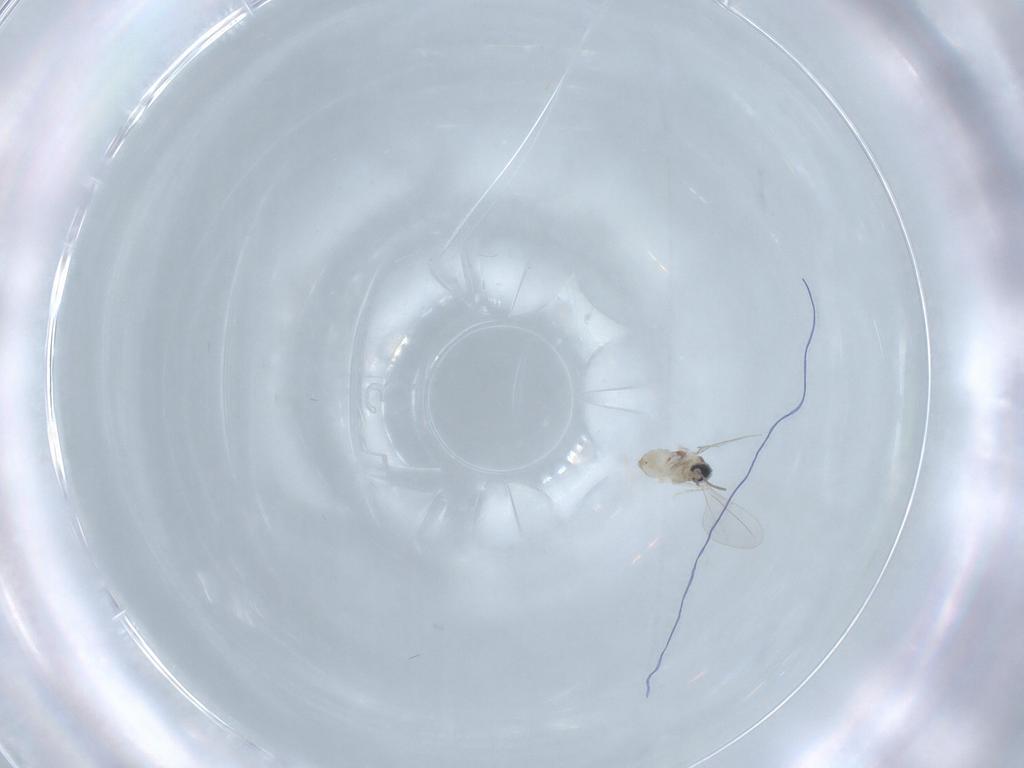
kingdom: Animalia
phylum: Arthropoda
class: Insecta
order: Diptera
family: Cecidomyiidae
